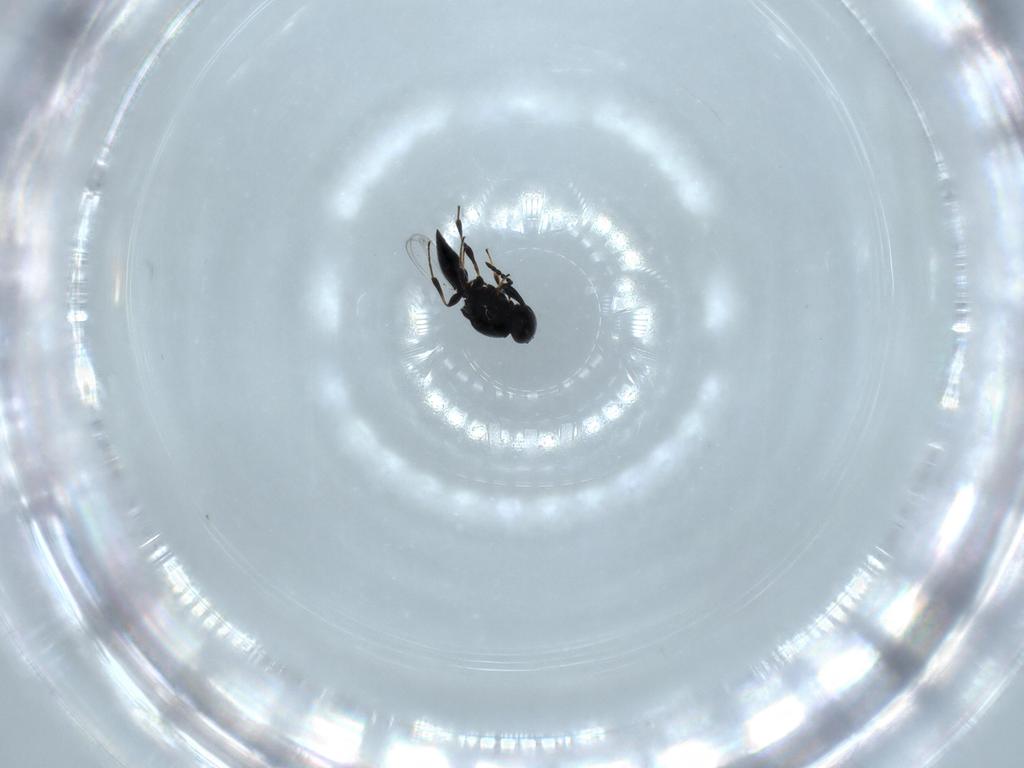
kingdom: Animalia
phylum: Arthropoda
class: Insecta
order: Hymenoptera
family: Platygastridae
